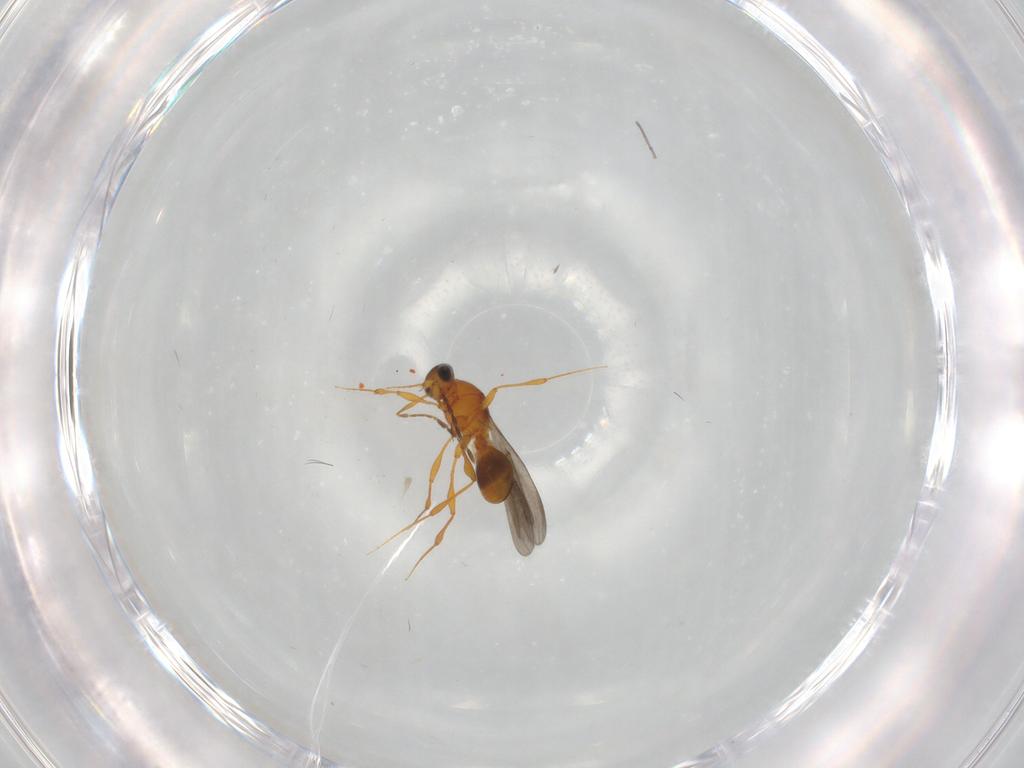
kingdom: Animalia
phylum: Arthropoda
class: Insecta
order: Hymenoptera
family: Platygastridae
